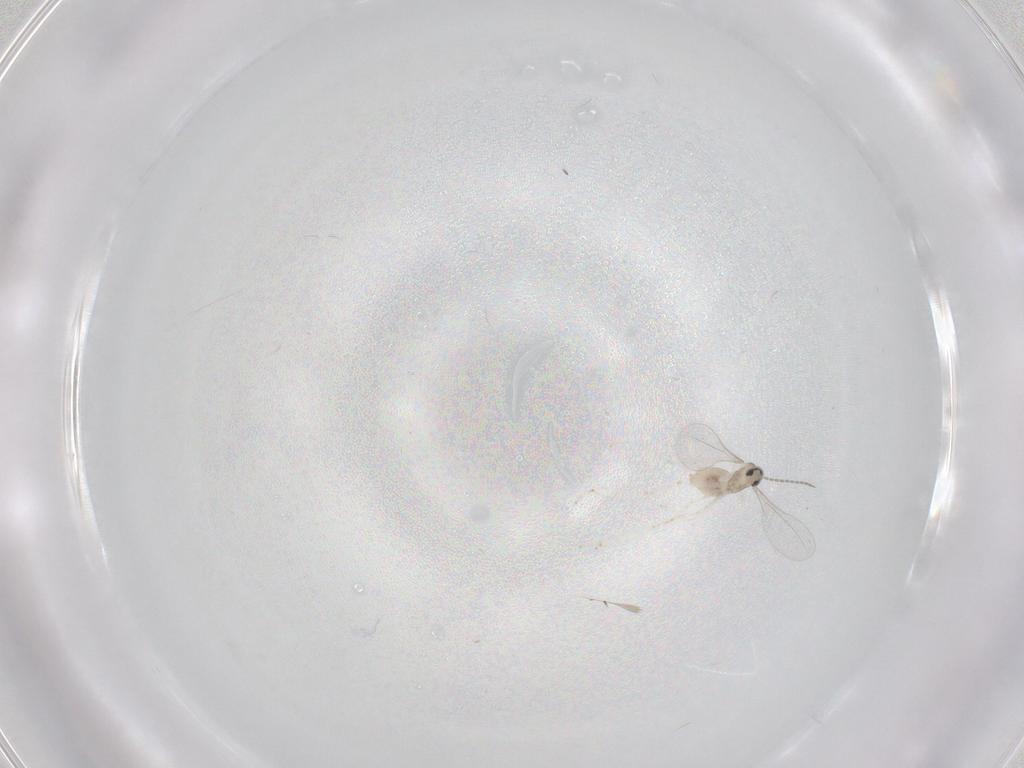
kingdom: Animalia
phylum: Arthropoda
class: Insecta
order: Diptera
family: Cecidomyiidae
